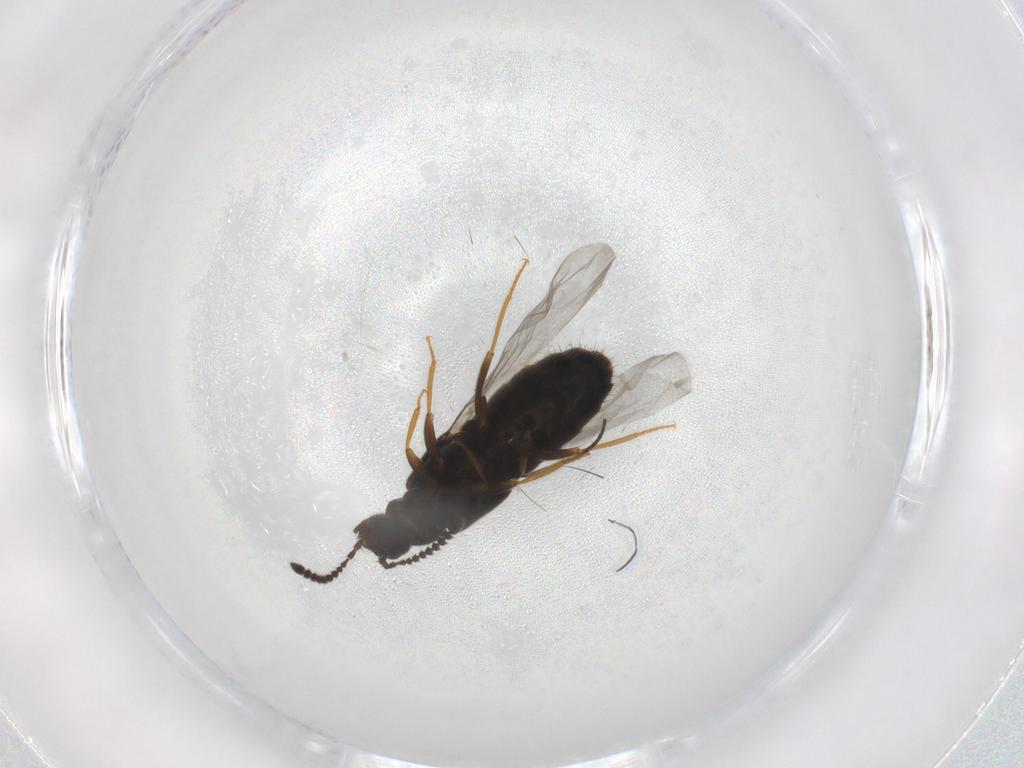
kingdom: Animalia
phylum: Arthropoda
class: Insecta
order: Coleoptera
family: Staphylinidae
